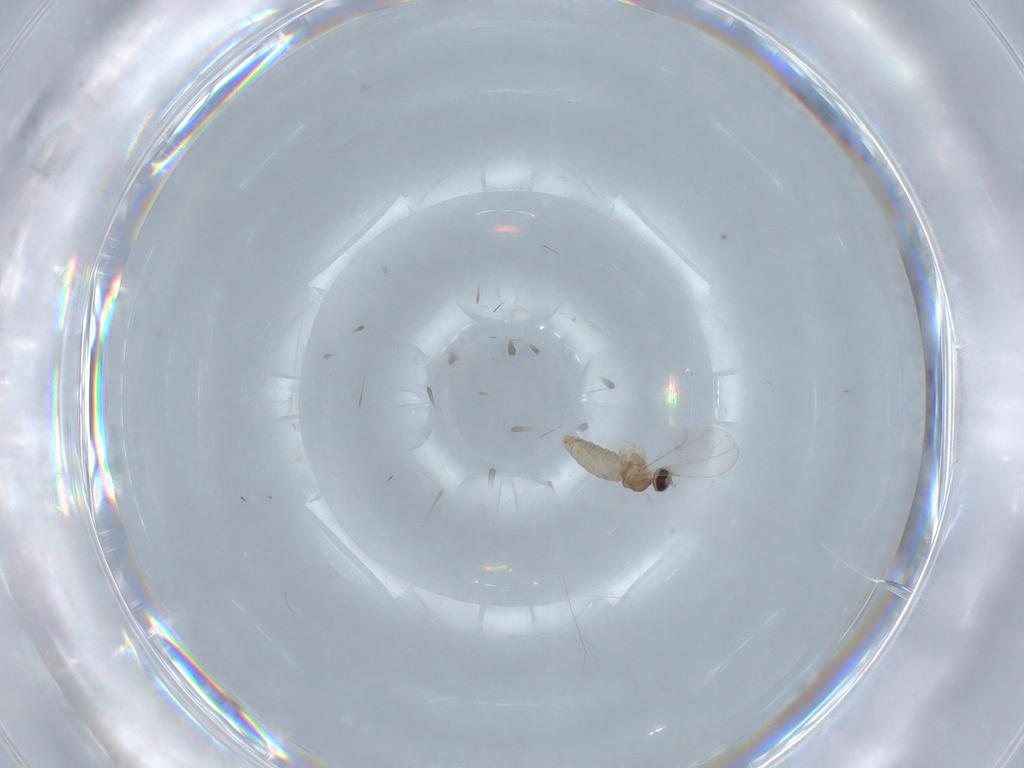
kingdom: Animalia
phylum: Arthropoda
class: Insecta
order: Diptera
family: Cecidomyiidae
